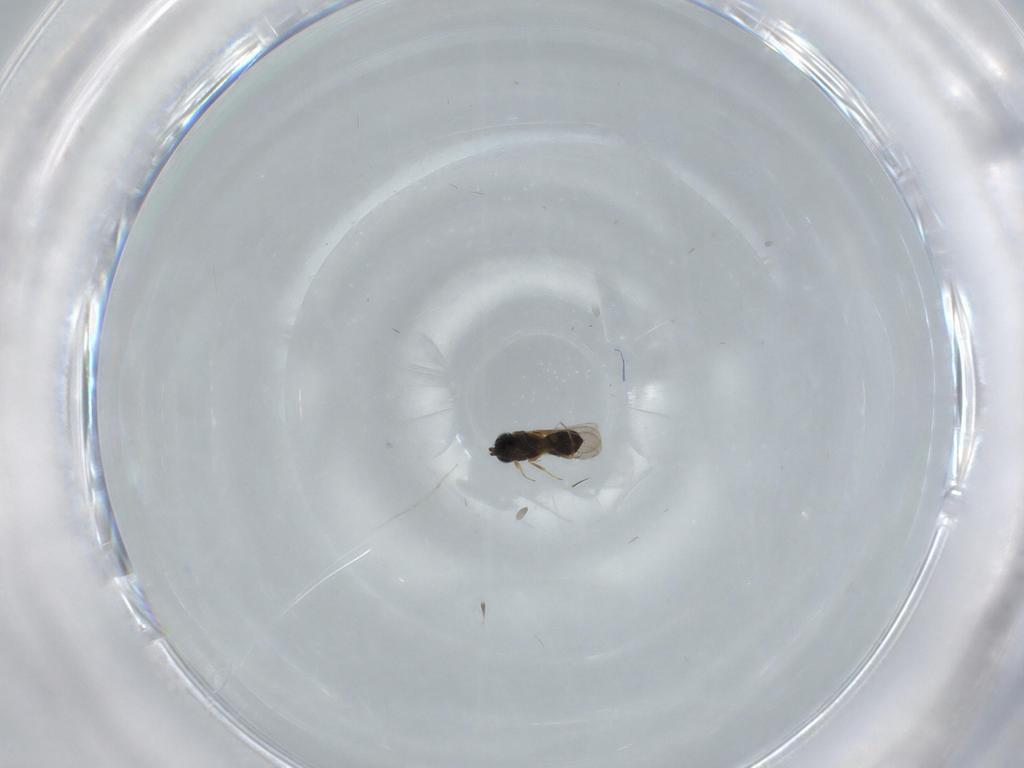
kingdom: Animalia
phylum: Arthropoda
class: Insecta
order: Hymenoptera
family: Scelionidae
